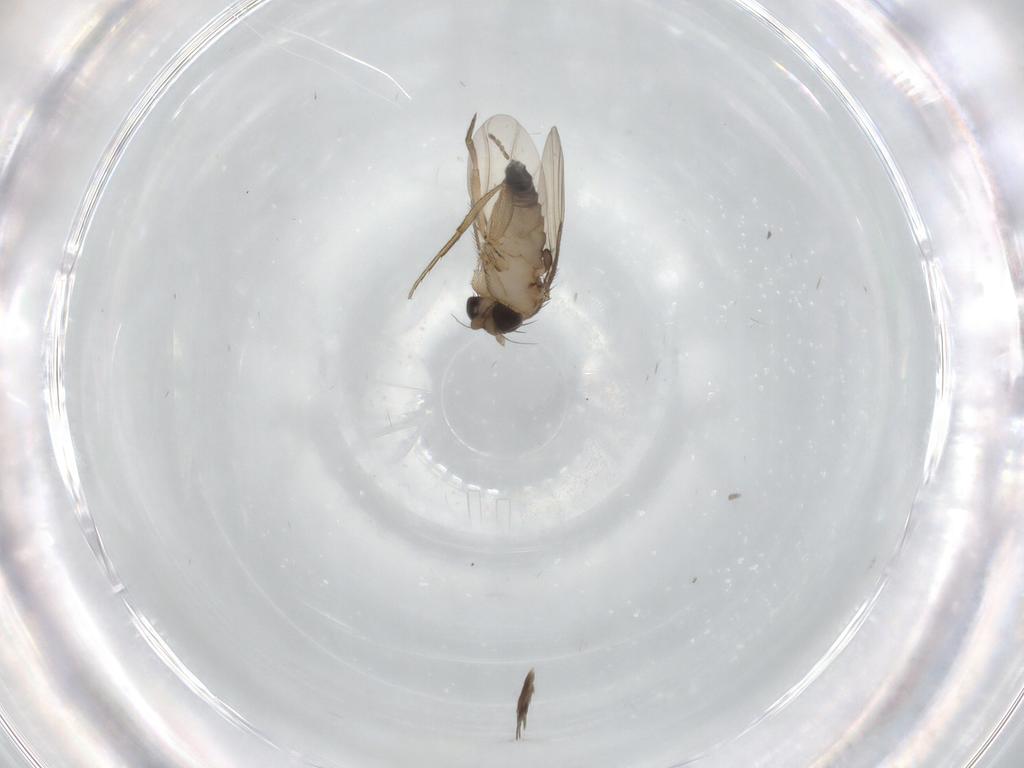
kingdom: Animalia
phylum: Arthropoda
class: Insecta
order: Diptera
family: Phoridae
